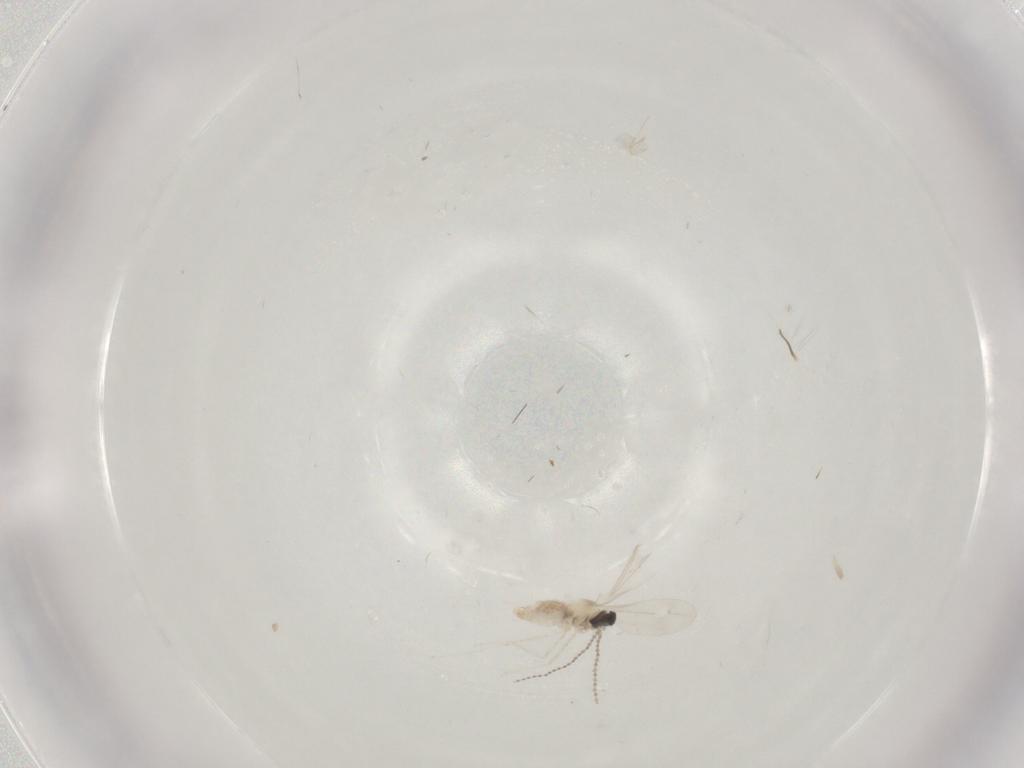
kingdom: Animalia
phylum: Arthropoda
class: Insecta
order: Diptera
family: Cecidomyiidae
